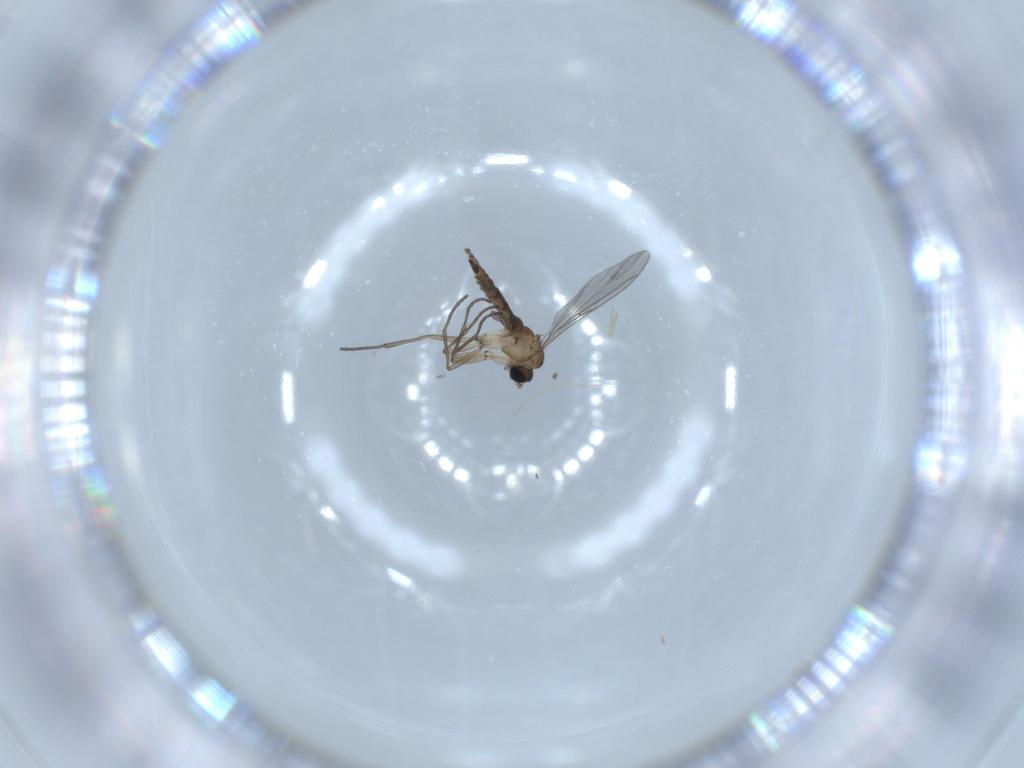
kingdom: Animalia
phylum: Arthropoda
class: Insecta
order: Diptera
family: Sciaridae
